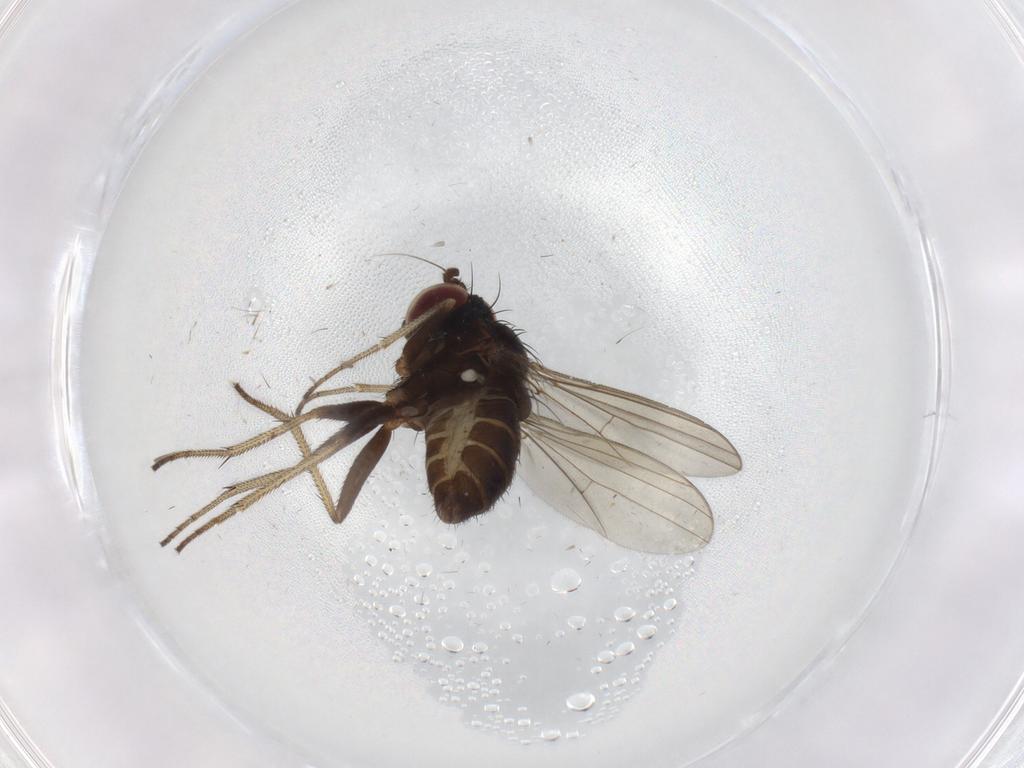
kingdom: Animalia
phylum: Arthropoda
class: Insecta
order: Diptera
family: Dolichopodidae
